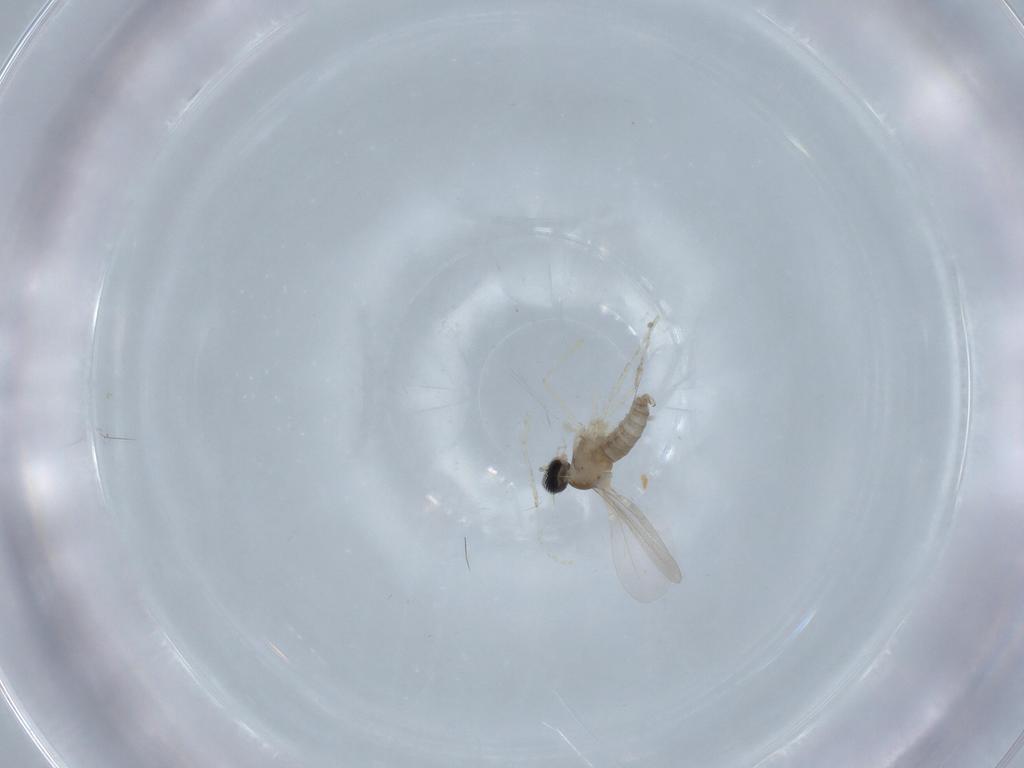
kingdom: Animalia
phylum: Arthropoda
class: Insecta
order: Diptera
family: Cecidomyiidae
